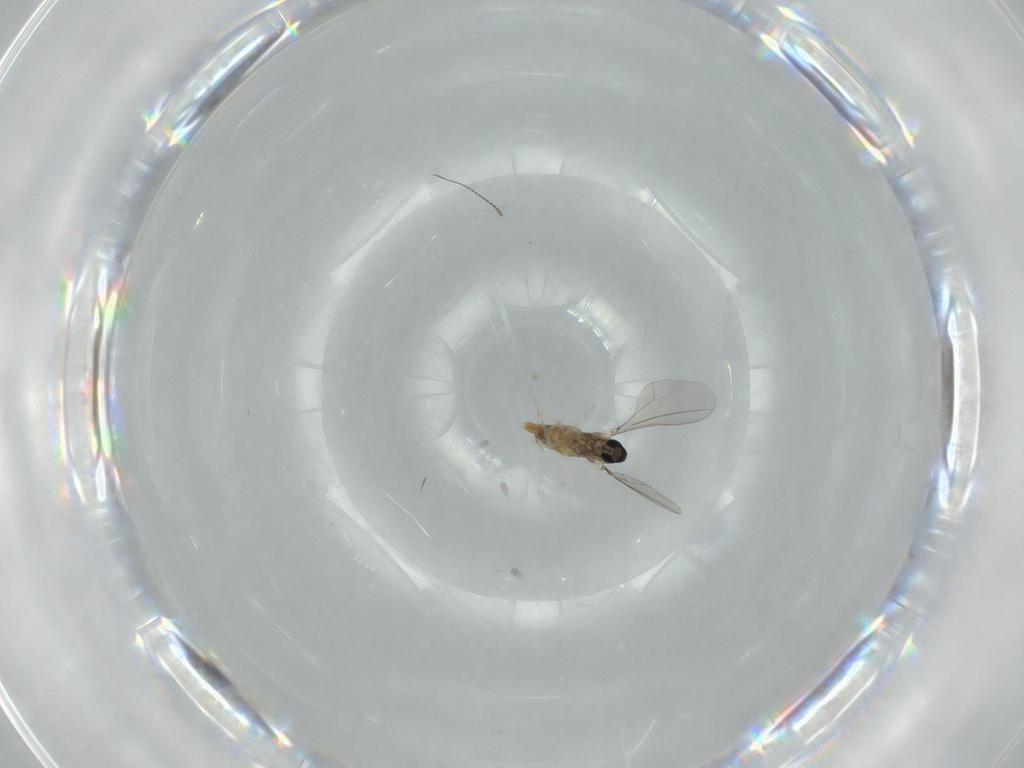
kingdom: Animalia
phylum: Arthropoda
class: Insecta
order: Diptera
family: Chironomidae
